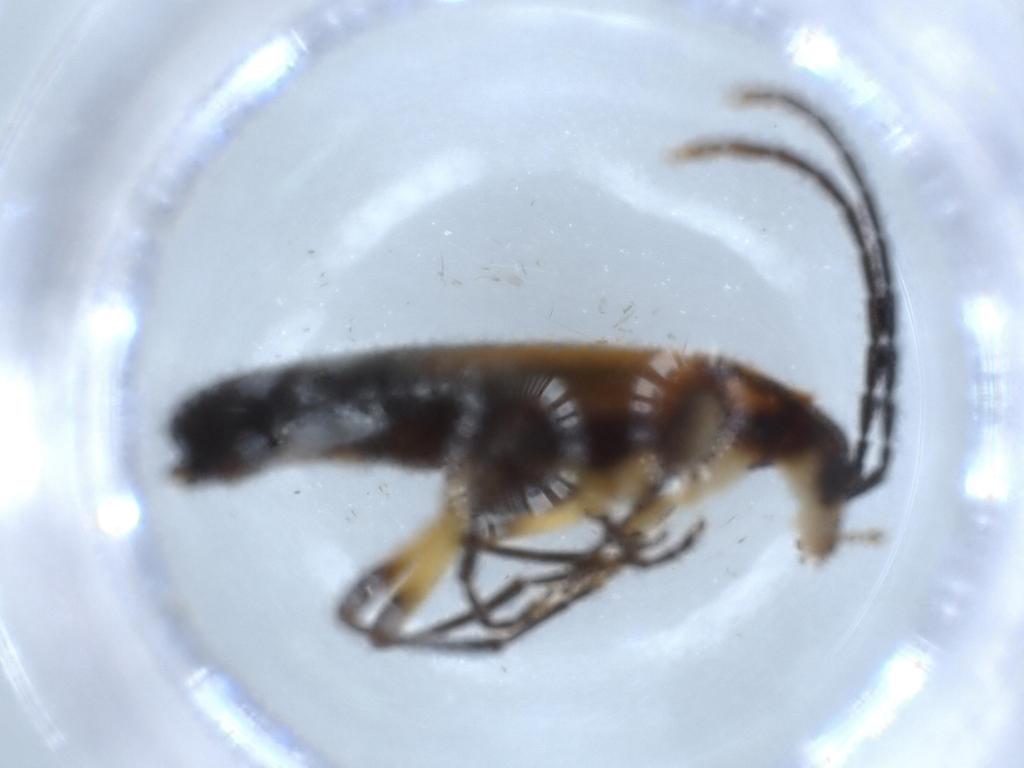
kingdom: Animalia
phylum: Arthropoda
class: Insecta
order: Coleoptera
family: Oedemeridae
